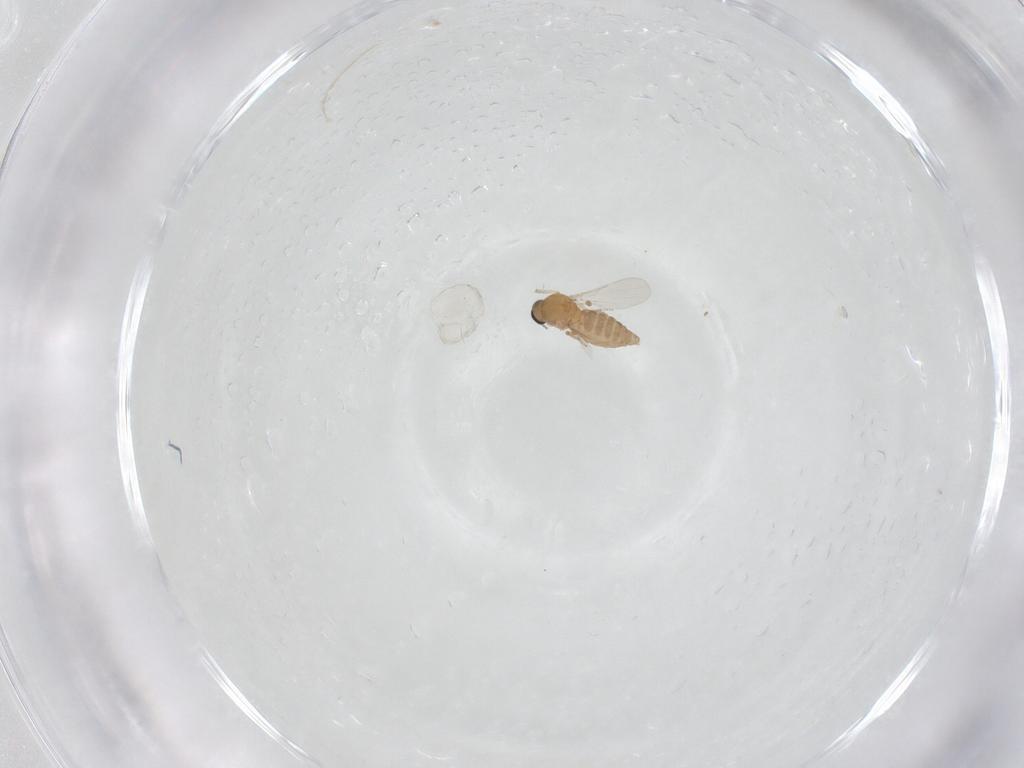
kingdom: Animalia
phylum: Arthropoda
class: Insecta
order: Diptera
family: Ceratopogonidae
